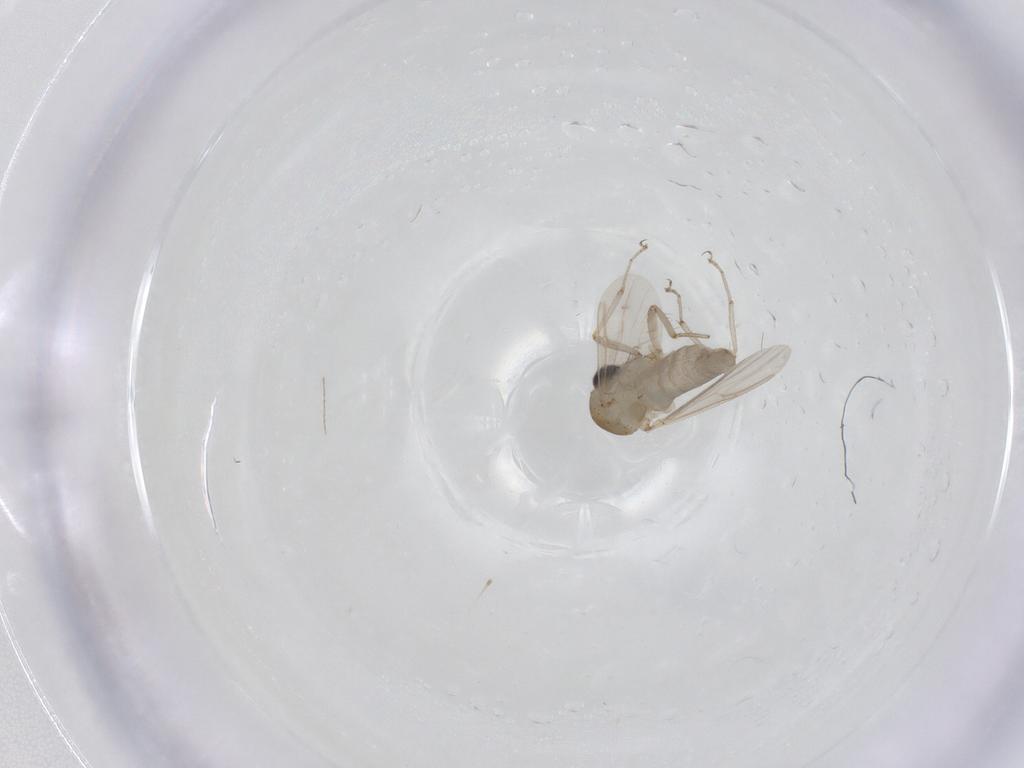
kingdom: Animalia
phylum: Arthropoda
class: Insecta
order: Diptera
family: Ceratopogonidae
